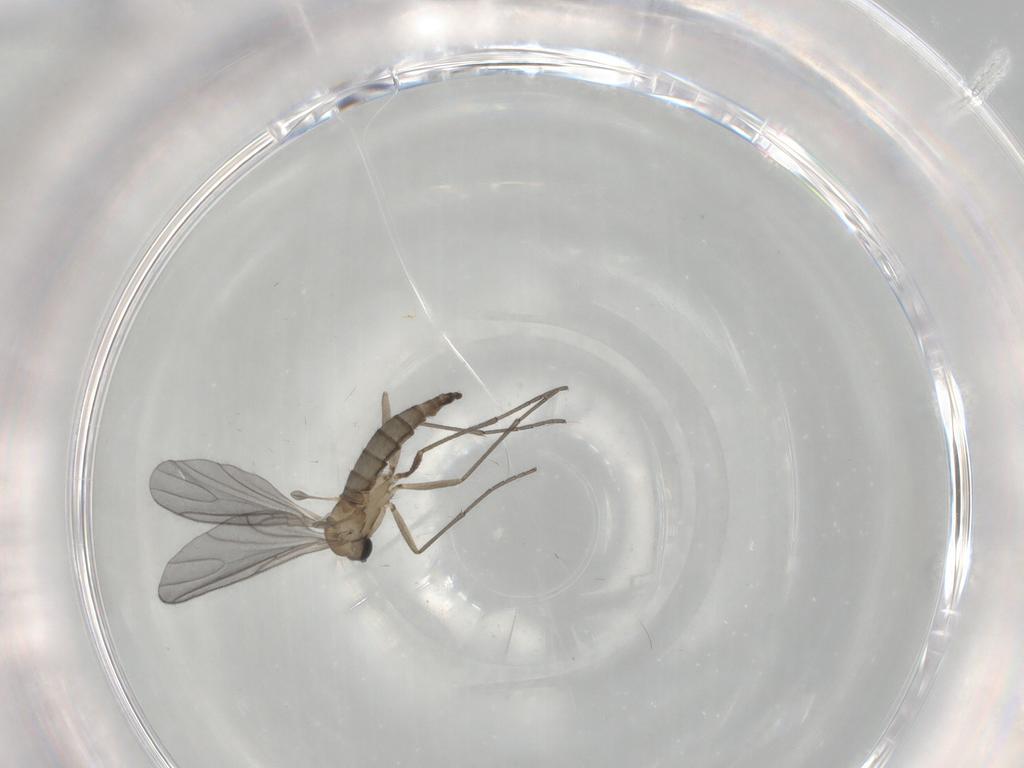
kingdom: Animalia
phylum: Arthropoda
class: Insecta
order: Diptera
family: Sciaridae
